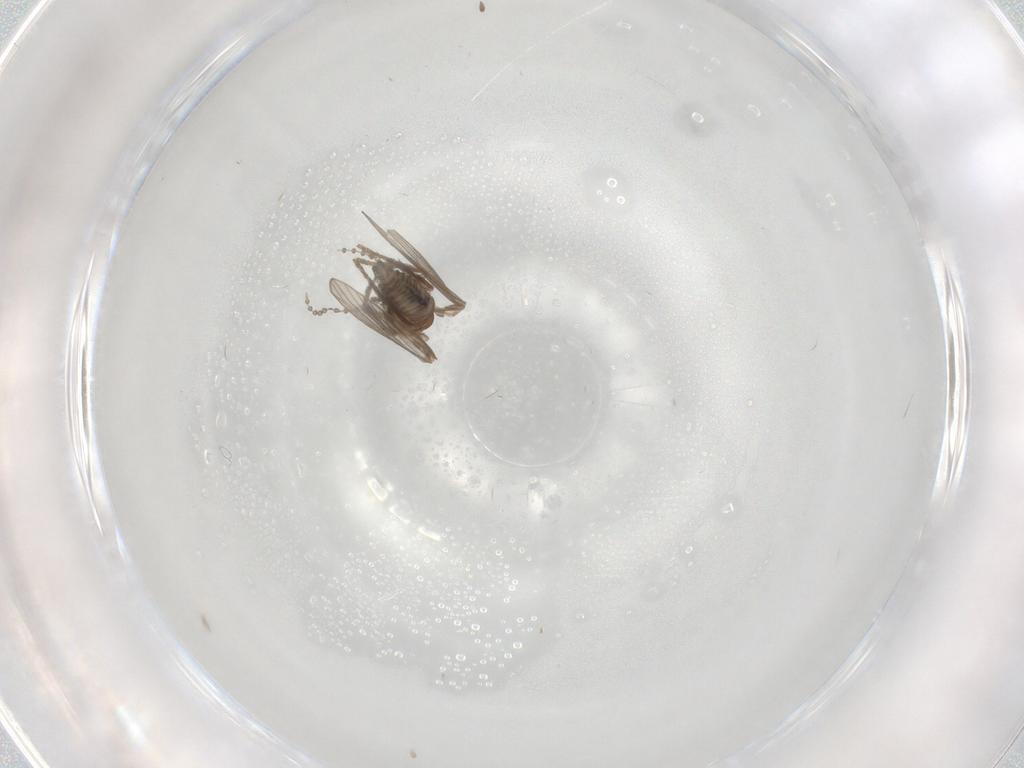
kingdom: Animalia
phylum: Arthropoda
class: Insecta
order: Diptera
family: Psychodidae
